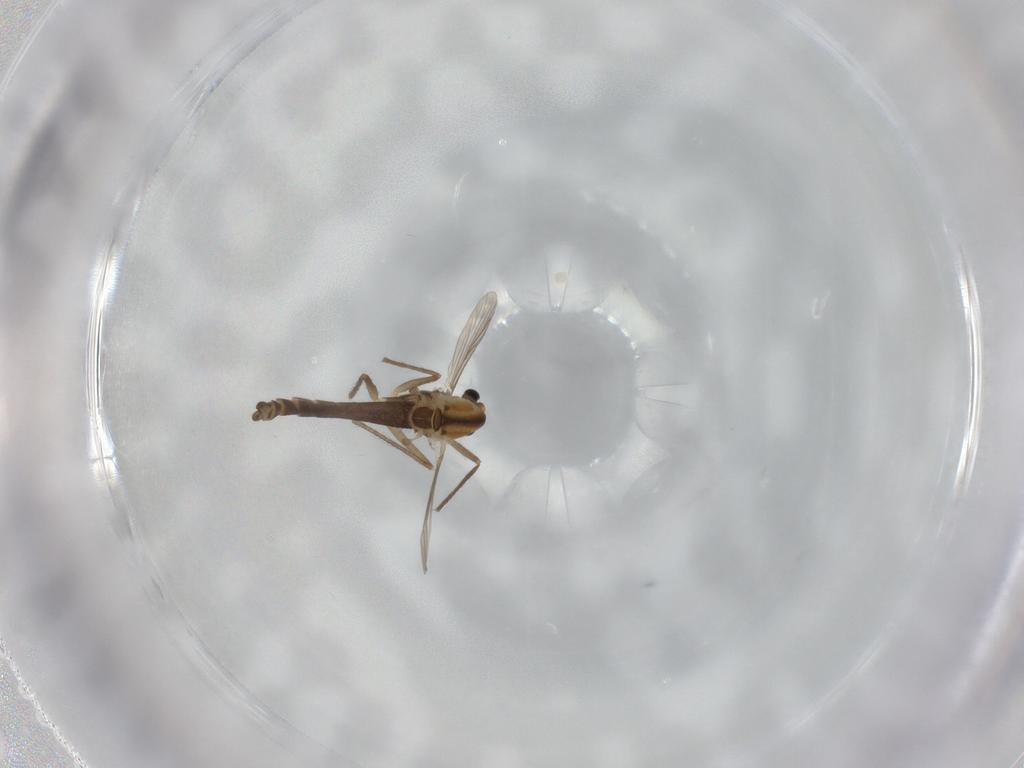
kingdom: Animalia
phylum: Arthropoda
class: Insecta
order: Diptera
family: Chironomidae
